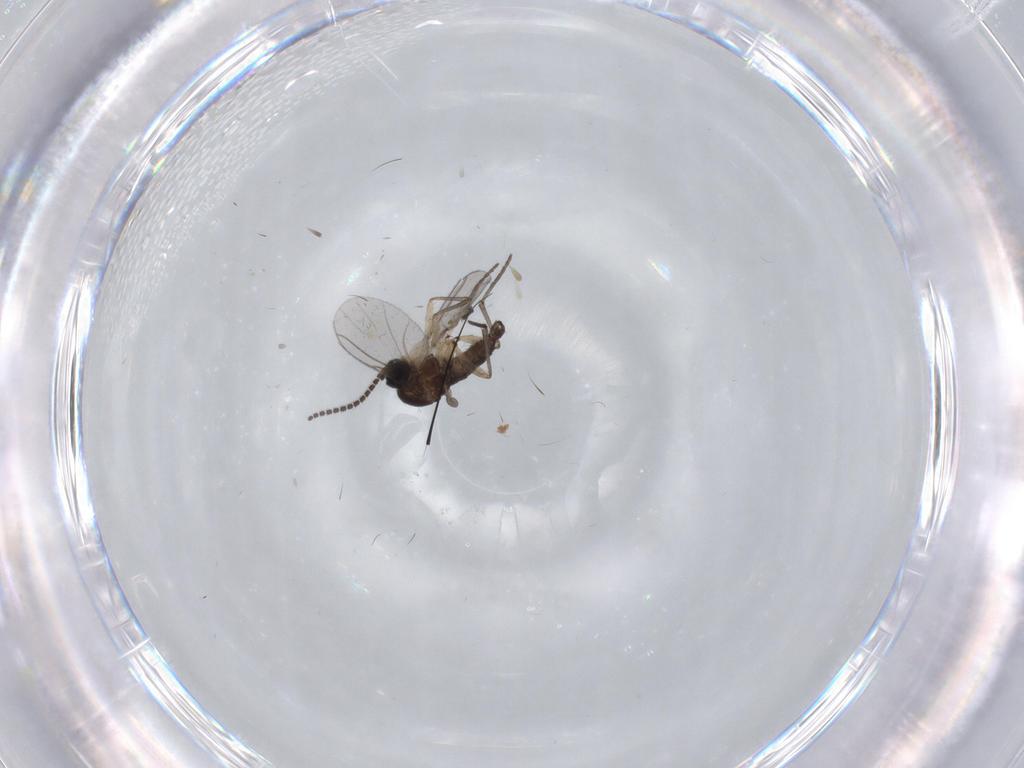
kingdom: Animalia
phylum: Arthropoda
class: Insecta
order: Diptera
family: Sciaridae
